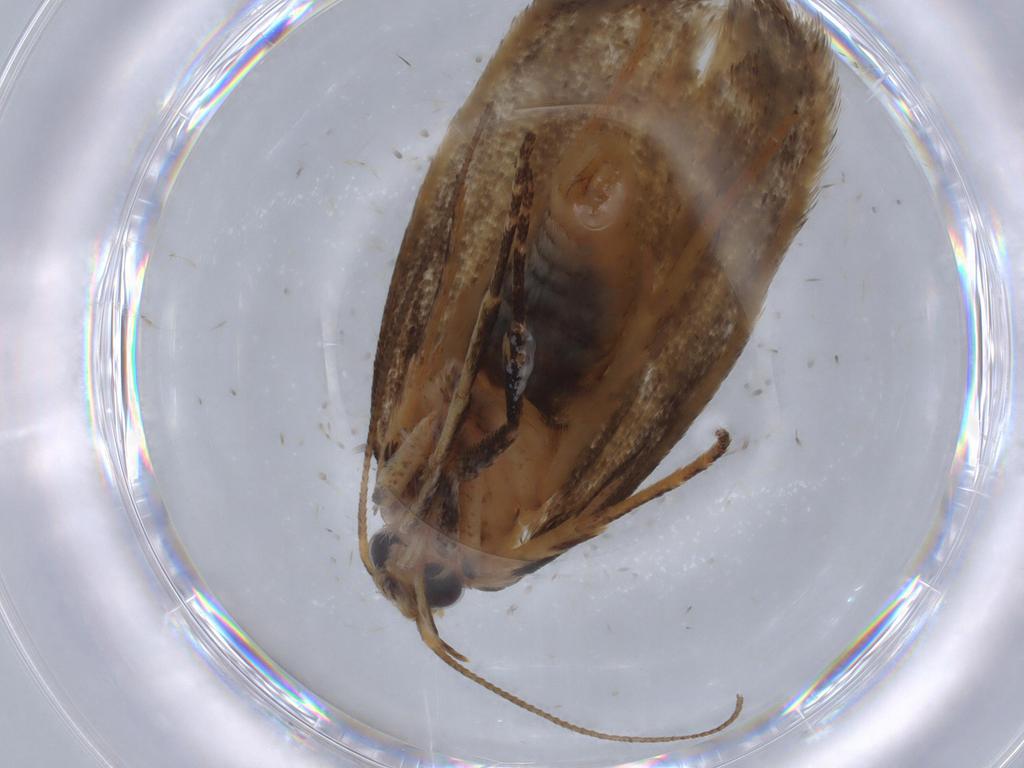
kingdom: Animalia
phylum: Arthropoda
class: Insecta
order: Lepidoptera
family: Oecophoridae
